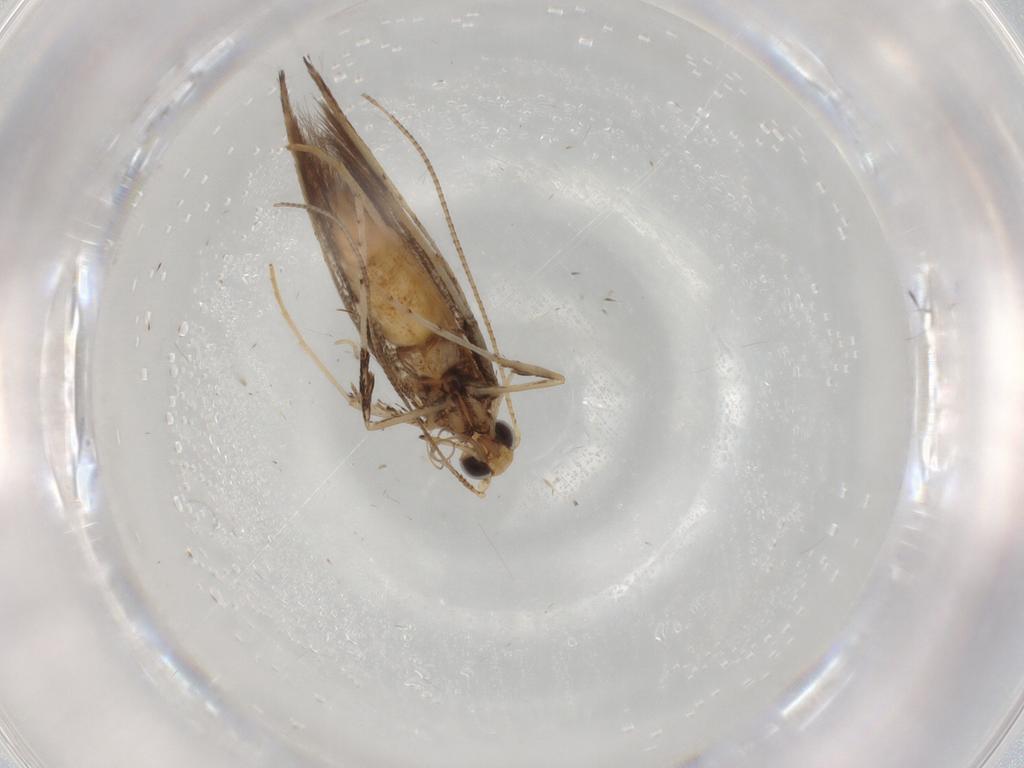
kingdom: Animalia
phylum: Arthropoda
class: Insecta
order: Lepidoptera
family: Gracillariidae
